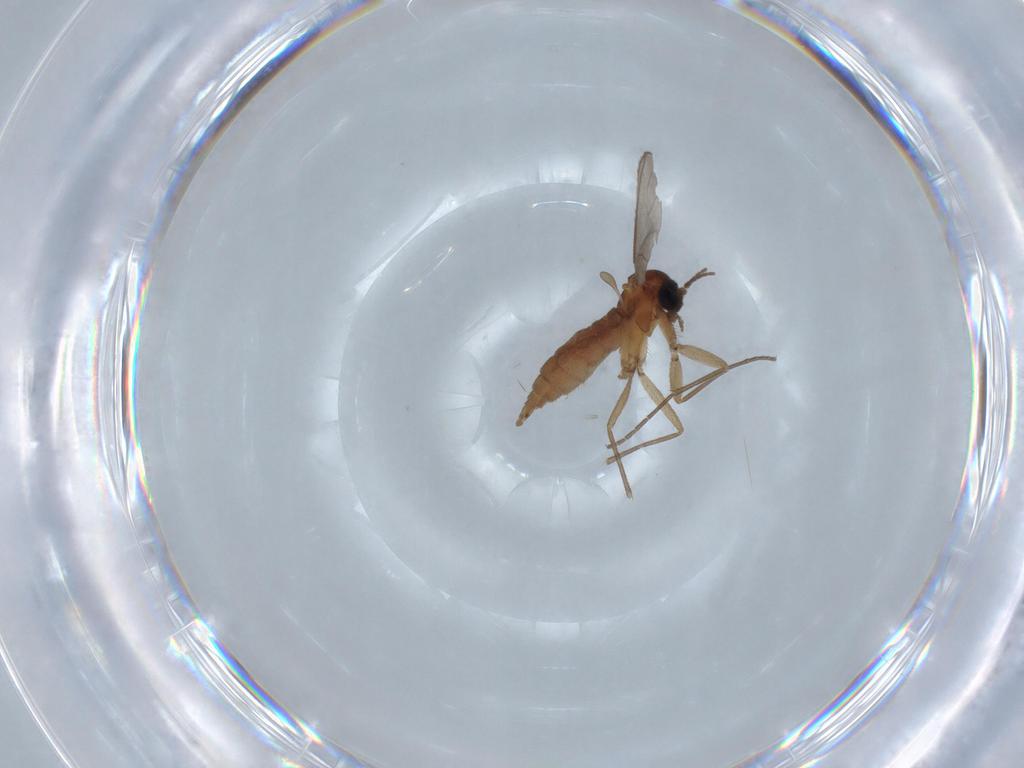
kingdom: Animalia
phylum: Arthropoda
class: Insecta
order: Diptera
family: Sciaridae
